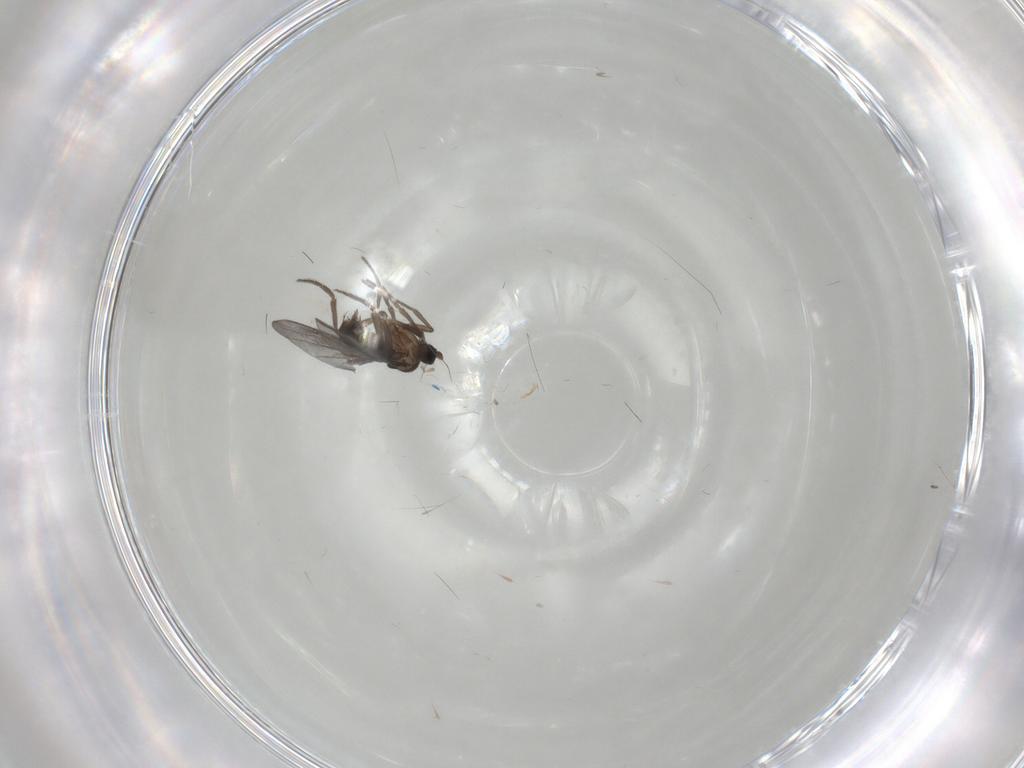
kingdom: Animalia
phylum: Arthropoda
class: Insecta
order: Diptera
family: Phoridae
